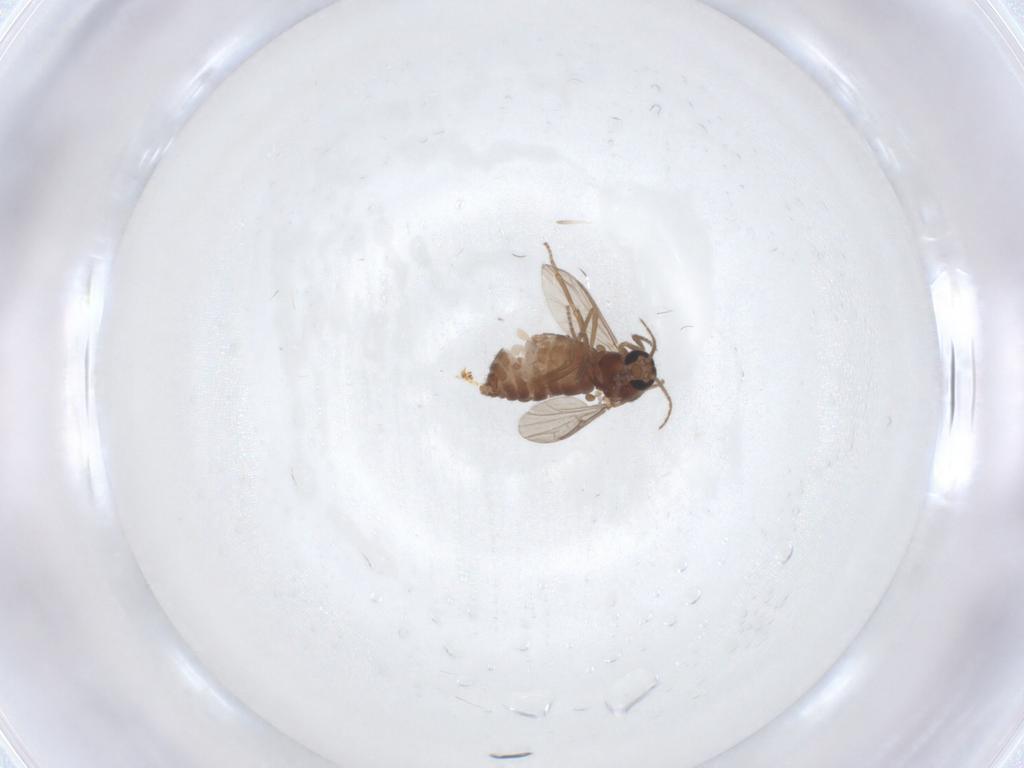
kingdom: Animalia
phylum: Arthropoda
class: Insecta
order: Diptera
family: Ceratopogonidae
